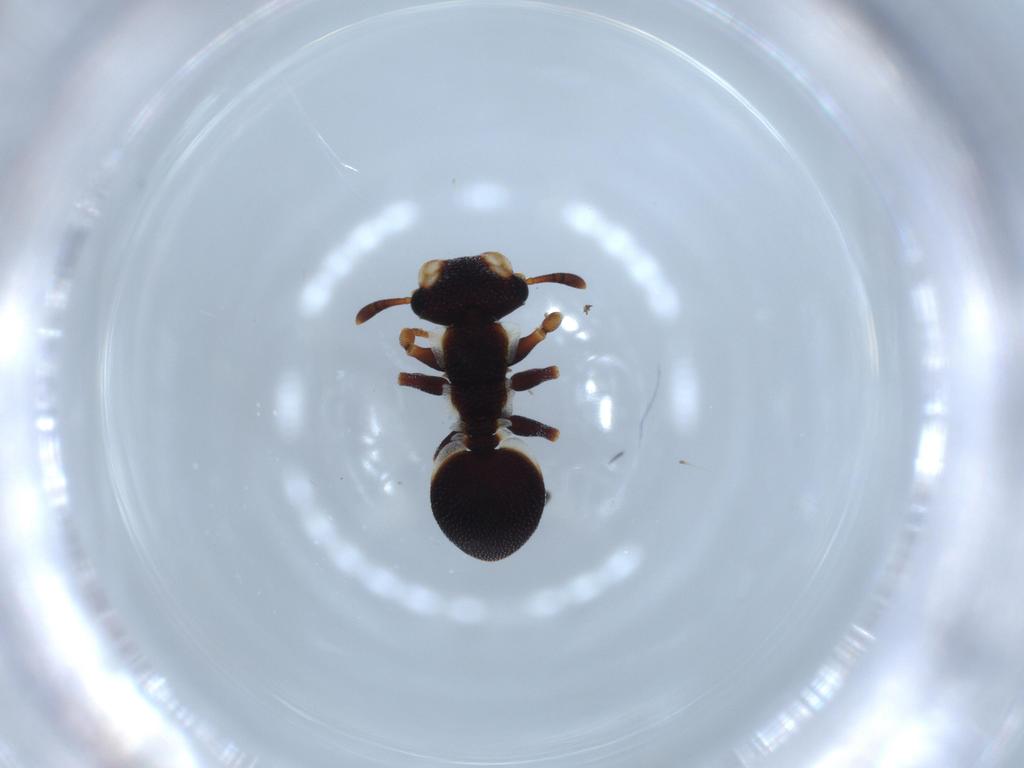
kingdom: Animalia
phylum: Arthropoda
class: Insecta
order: Hymenoptera
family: Formicidae
